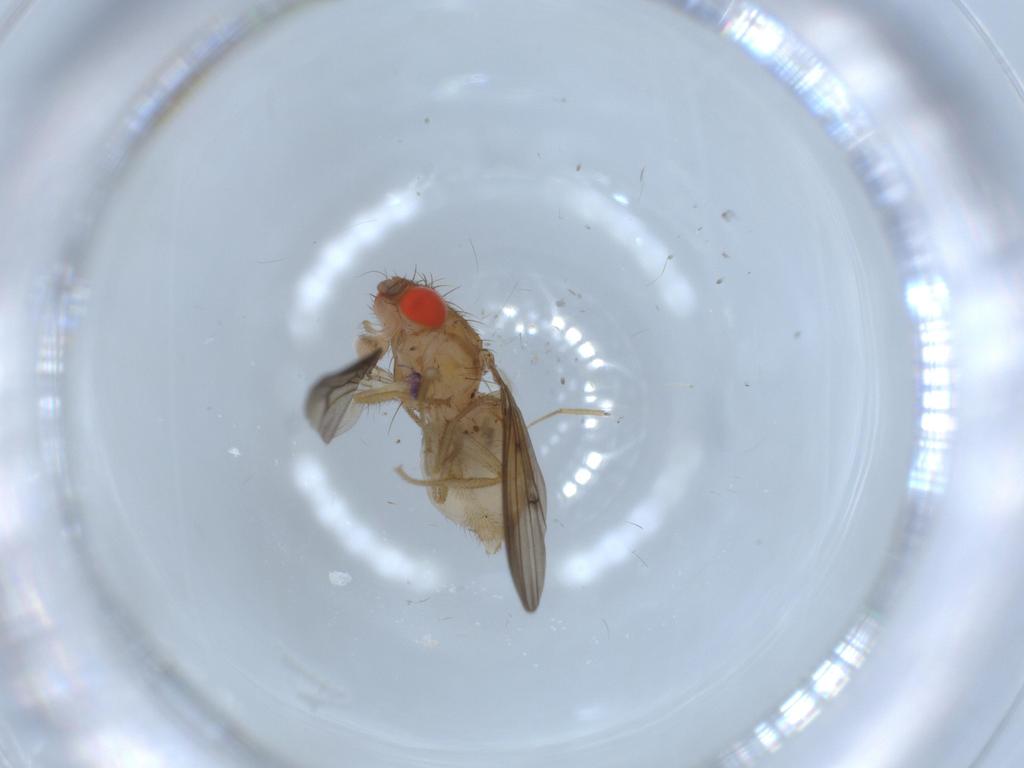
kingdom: Animalia
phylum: Arthropoda
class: Insecta
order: Diptera
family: Drosophilidae
